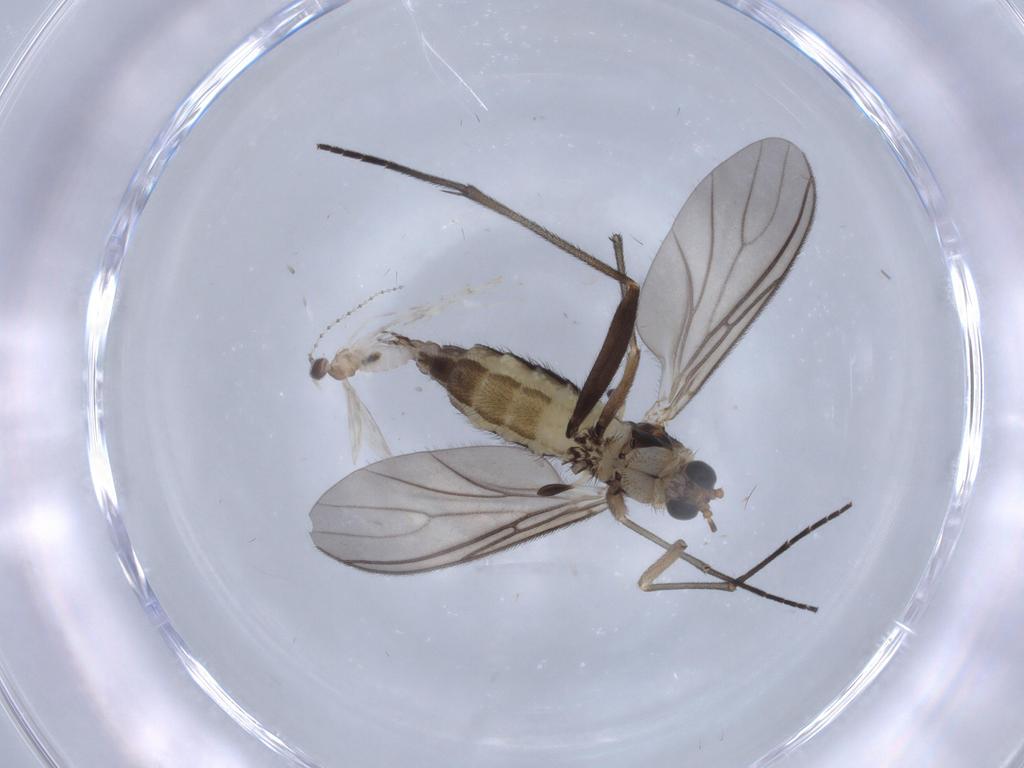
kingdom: Animalia
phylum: Arthropoda
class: Insecta
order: Diptera
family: Cecidomyiidae
